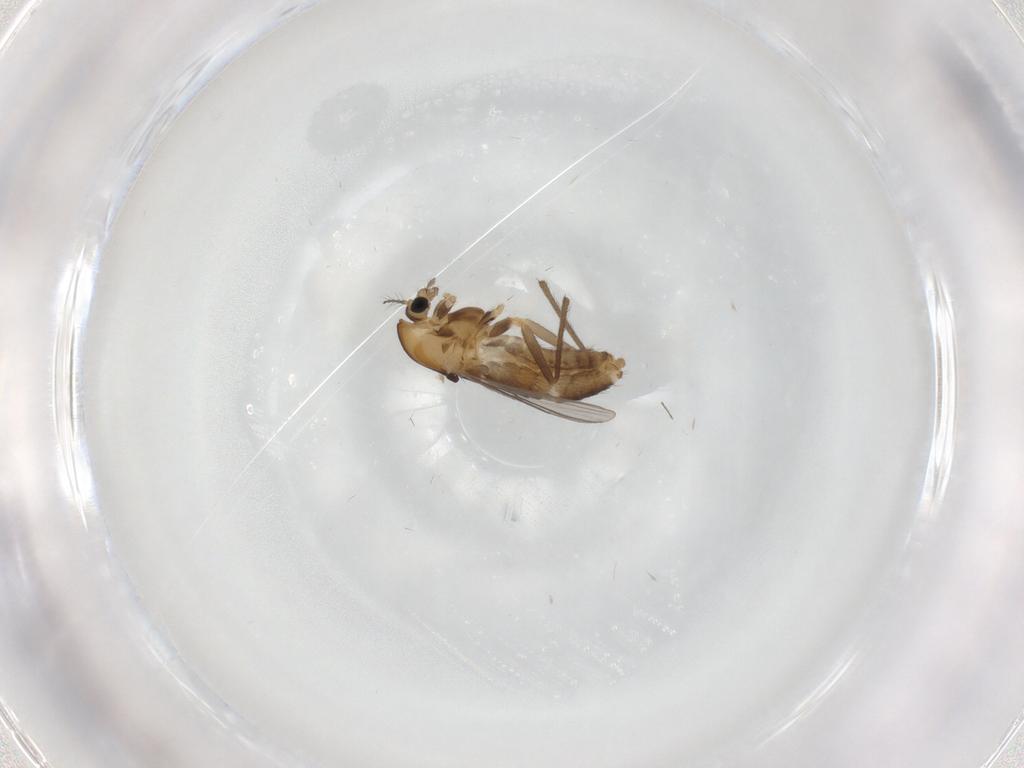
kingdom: Animalia
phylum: Arthropoda
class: Insecta
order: Diptera
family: Chironomidae
